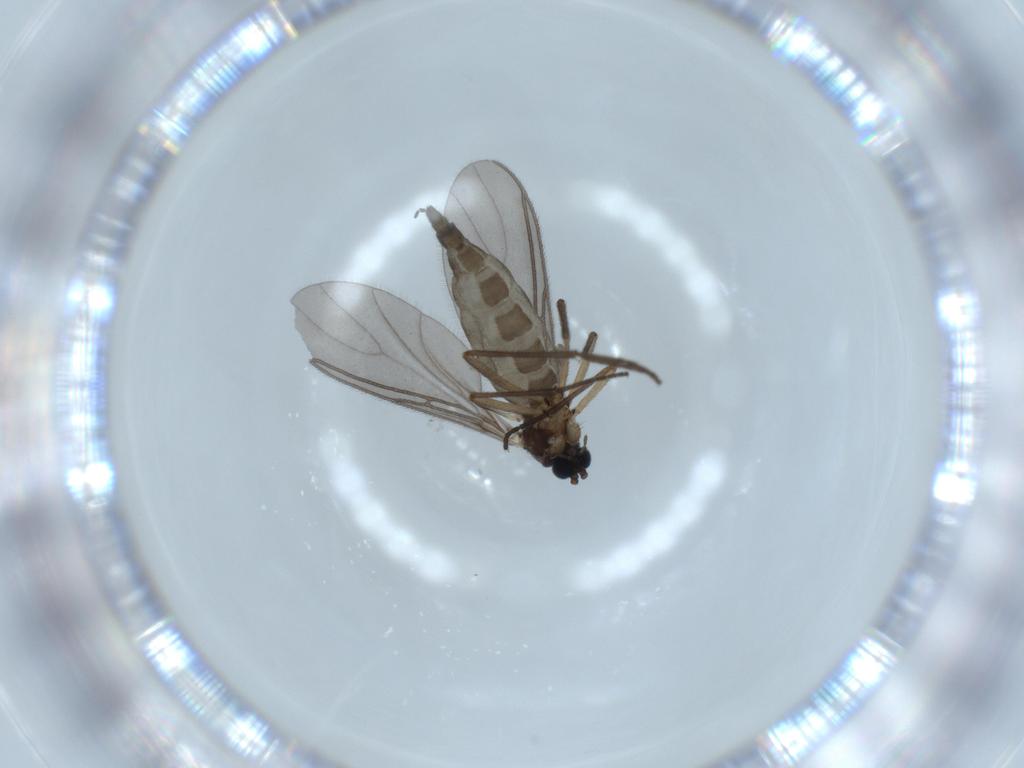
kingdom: Animalia
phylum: Arthropoda
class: Insecta
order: Diptera
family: Sciaridae
